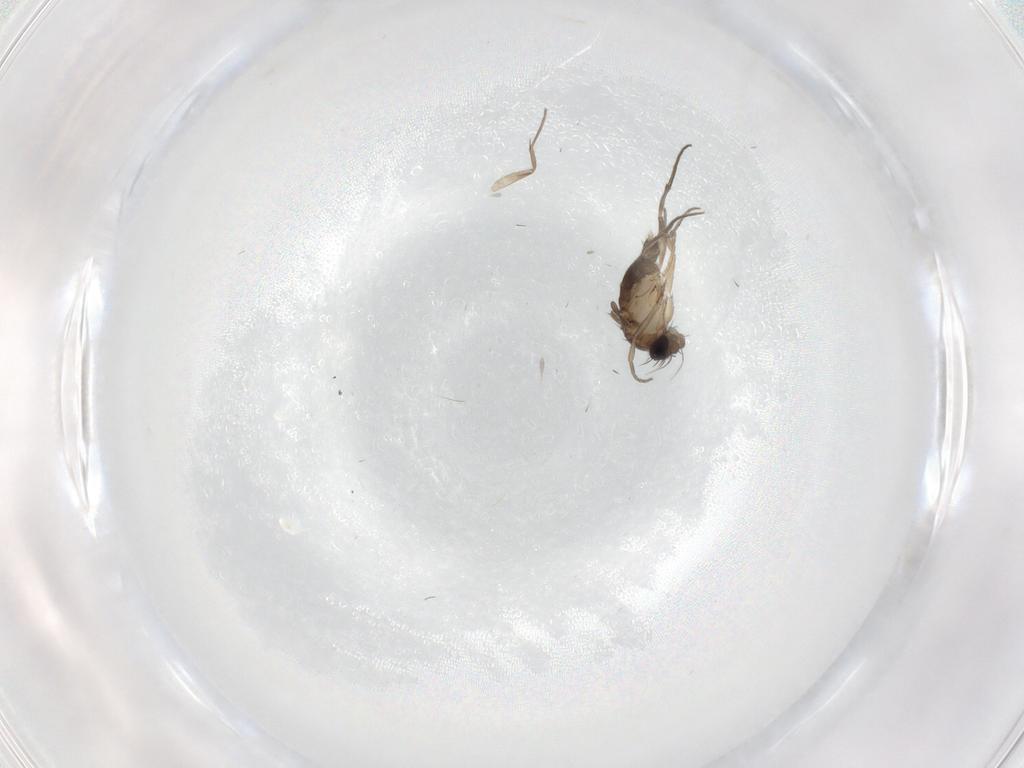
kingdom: Animalia
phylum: Arthropoda
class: Insecta
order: Diptera
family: Phoridae
